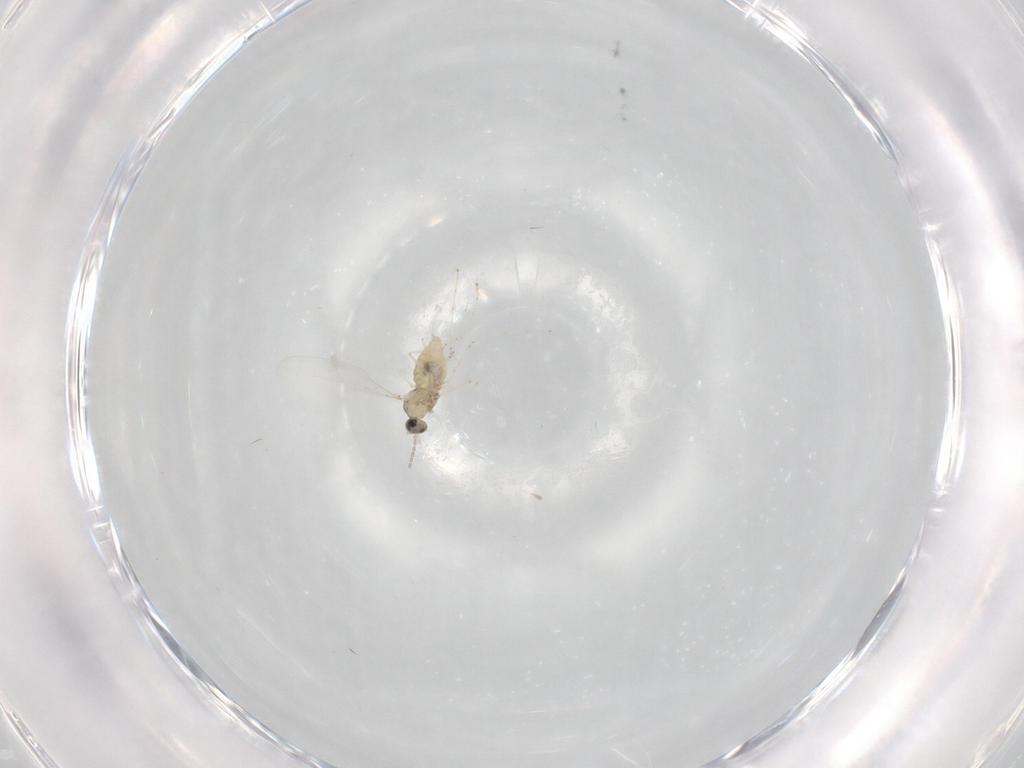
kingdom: Animalia
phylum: Arthropoda
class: Insecta
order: Diptera
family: Cecidomyiidae
